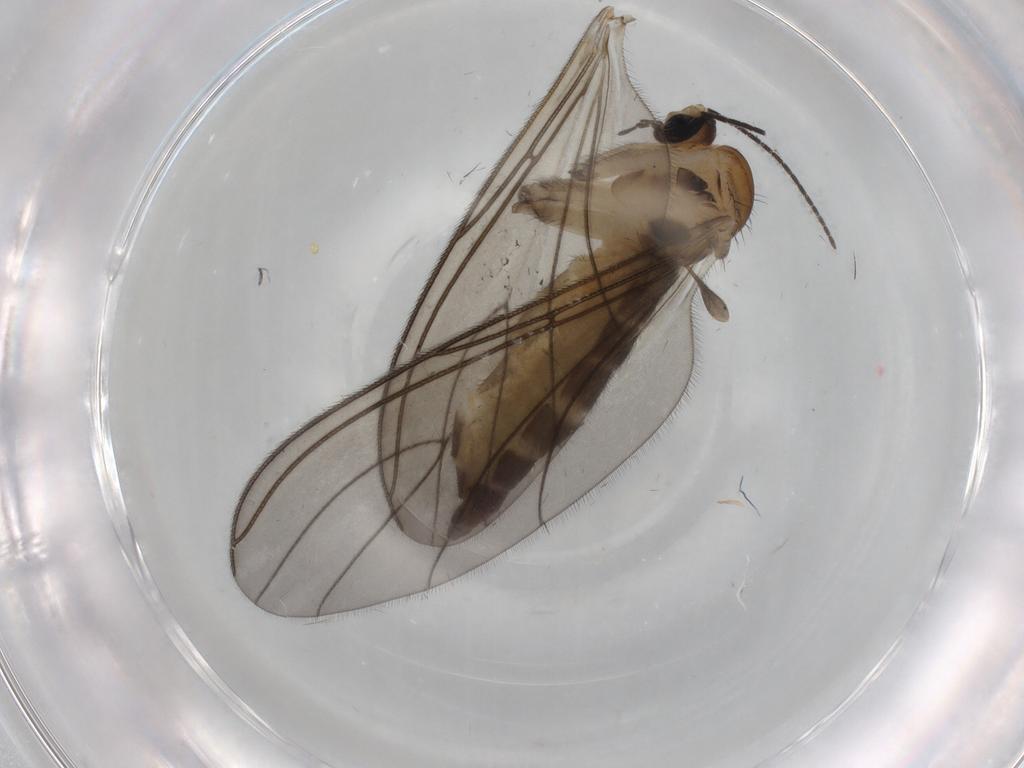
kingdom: Animalia
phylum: Arthropoda
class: Insecta
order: Diptera
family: Sciaridae
